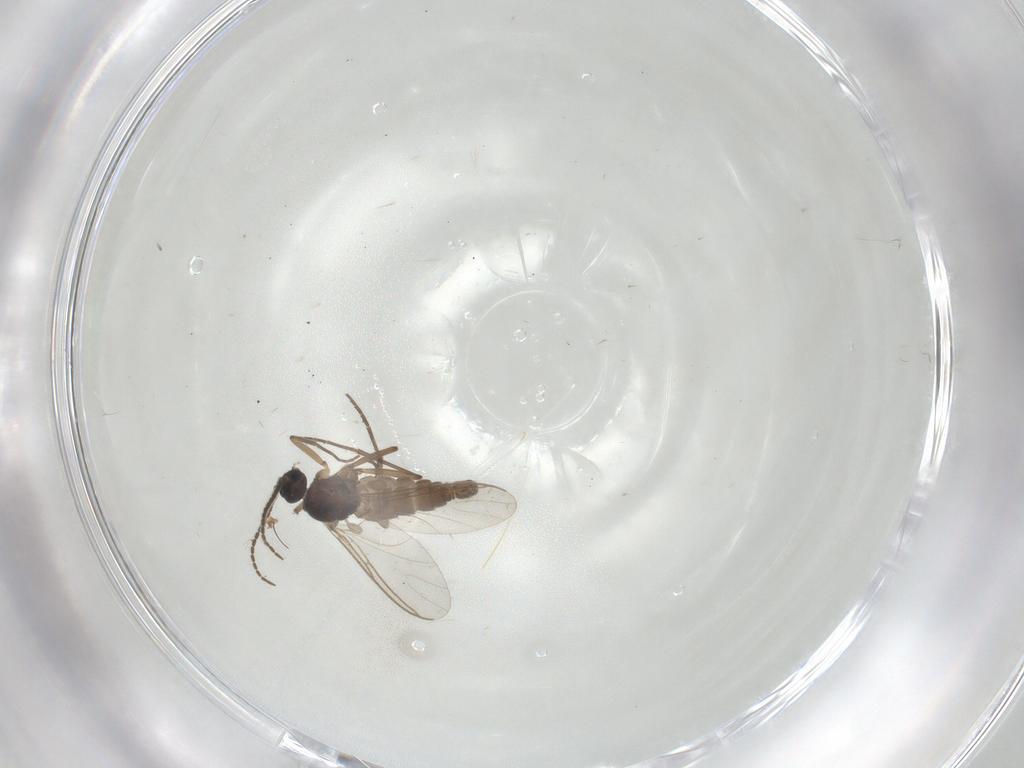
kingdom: Animalia
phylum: Arthropoda
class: Insecta
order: Diptera
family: Sciaridae
